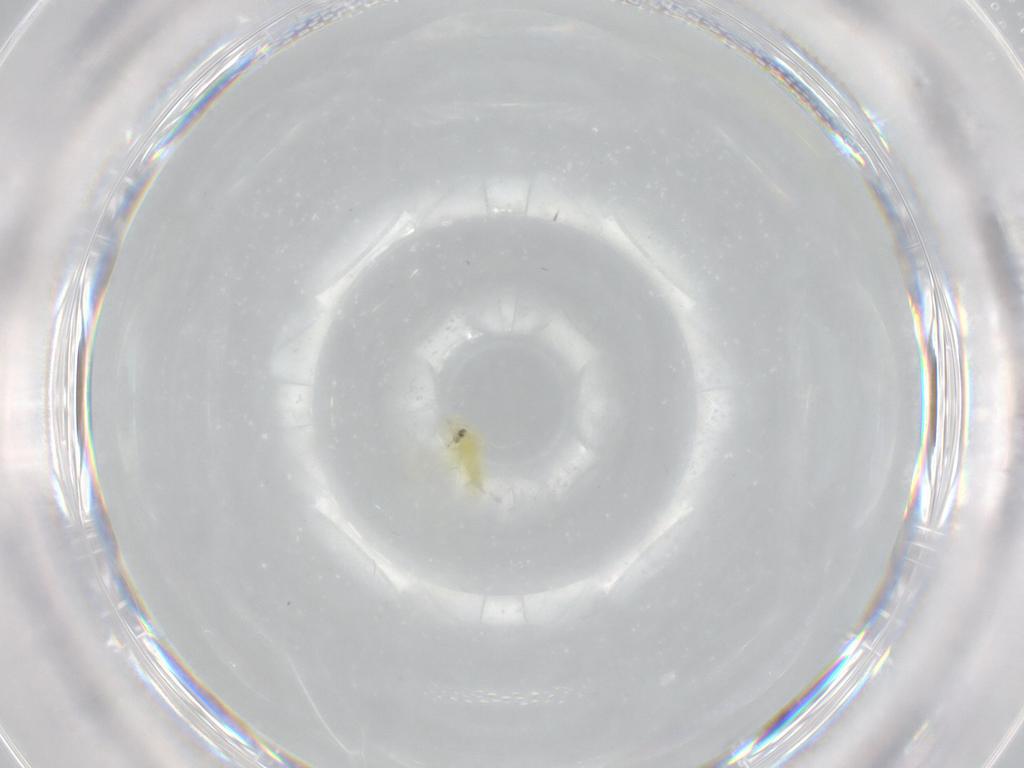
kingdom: Animalia
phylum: Arthropoda
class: Insecta
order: Hemiptera
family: Aleyrodidae
